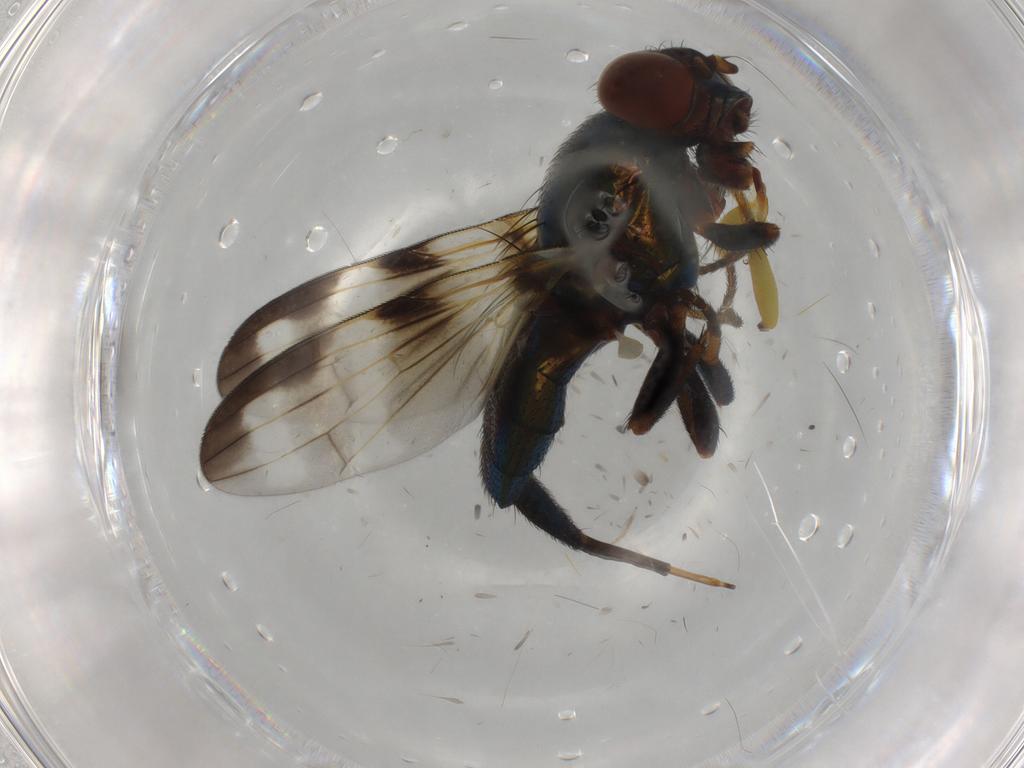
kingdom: Animalia
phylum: Arthropoda
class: Insecta
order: Diptera
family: Ulidiidae
